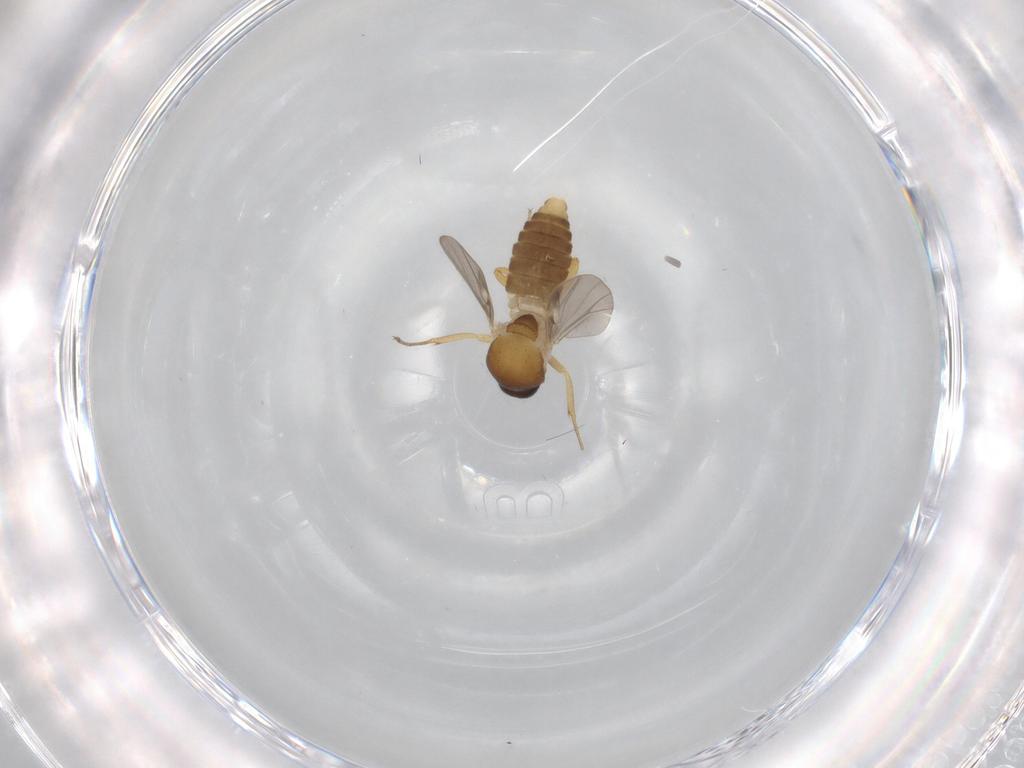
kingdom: Animalia
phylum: Arthropoda
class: Insecta
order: Diptera
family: Ceratopogonidae
